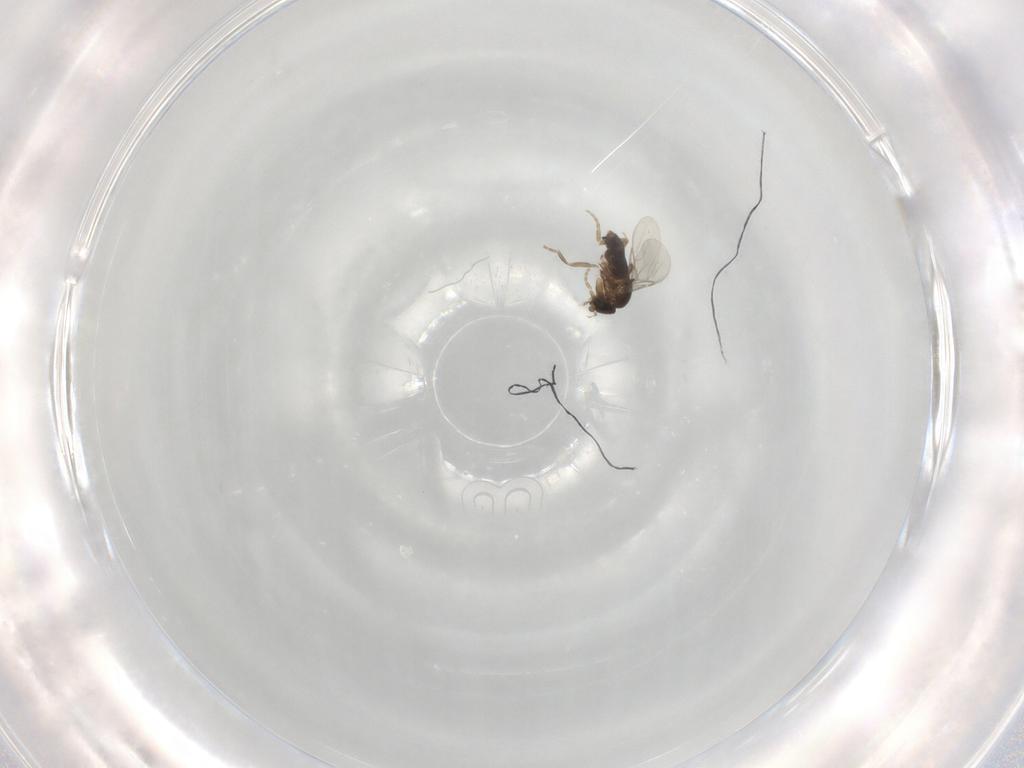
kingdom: Animalia
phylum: Arthropoda
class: Insecta
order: Diptera
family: Phoridae
